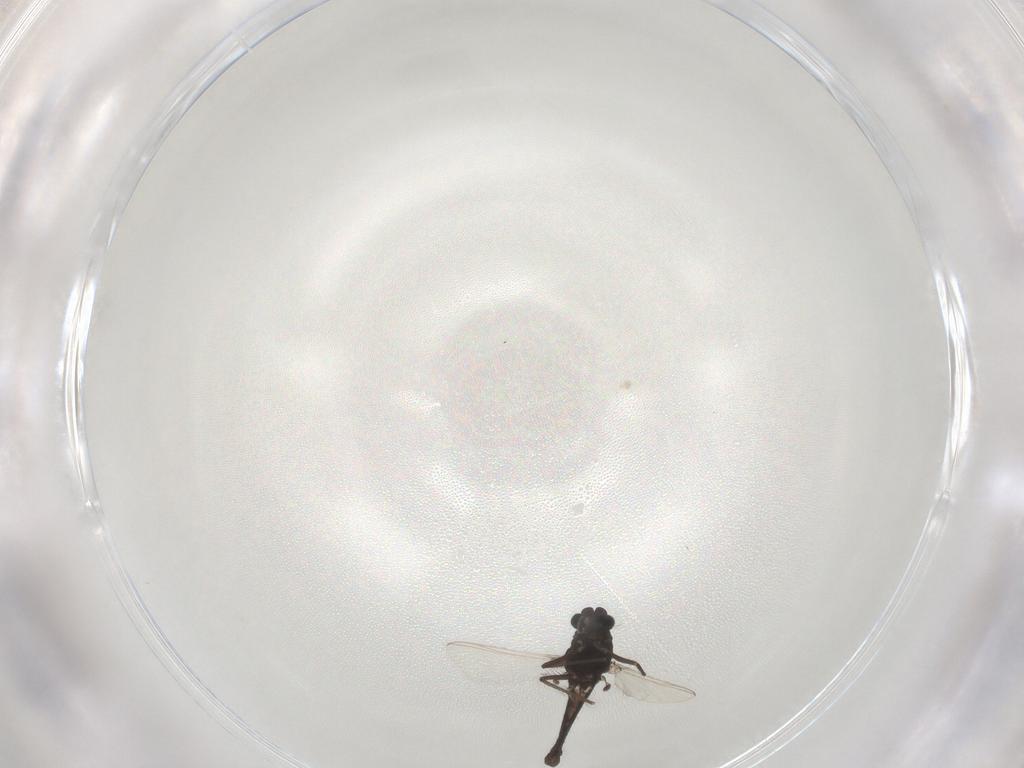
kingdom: Animalia
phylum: Arthropoda
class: Insecta
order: Diptera
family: Chironomidae
